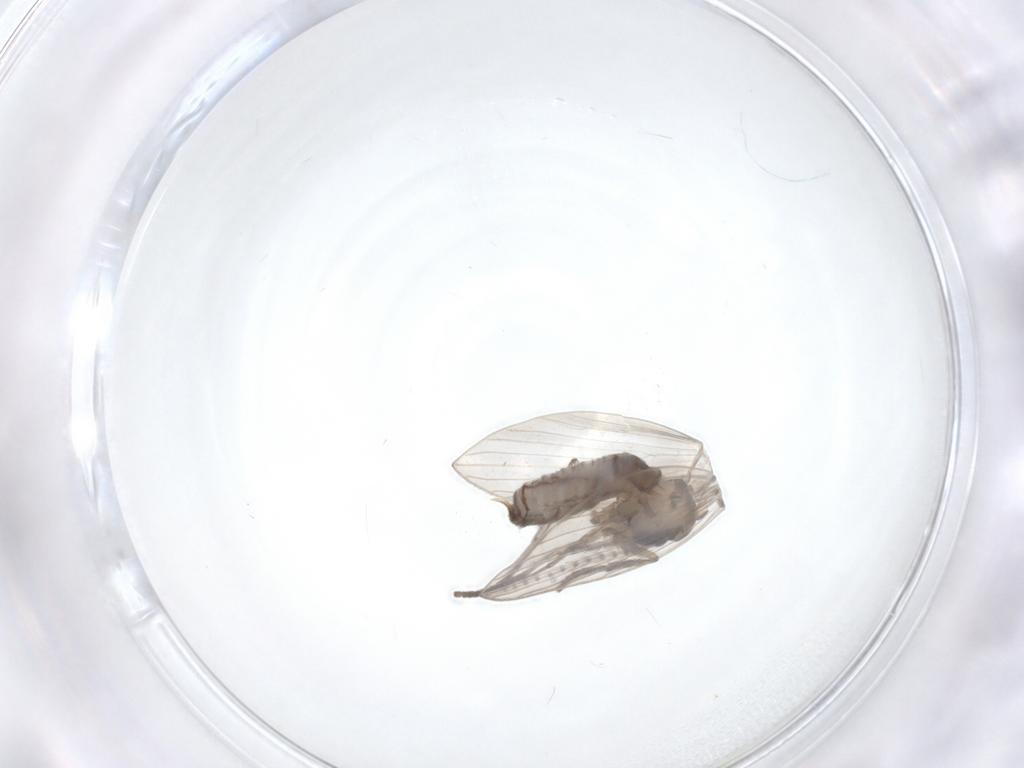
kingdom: Animalia
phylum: Arthropoda
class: Insecta
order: Diptera
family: Psychodidae
